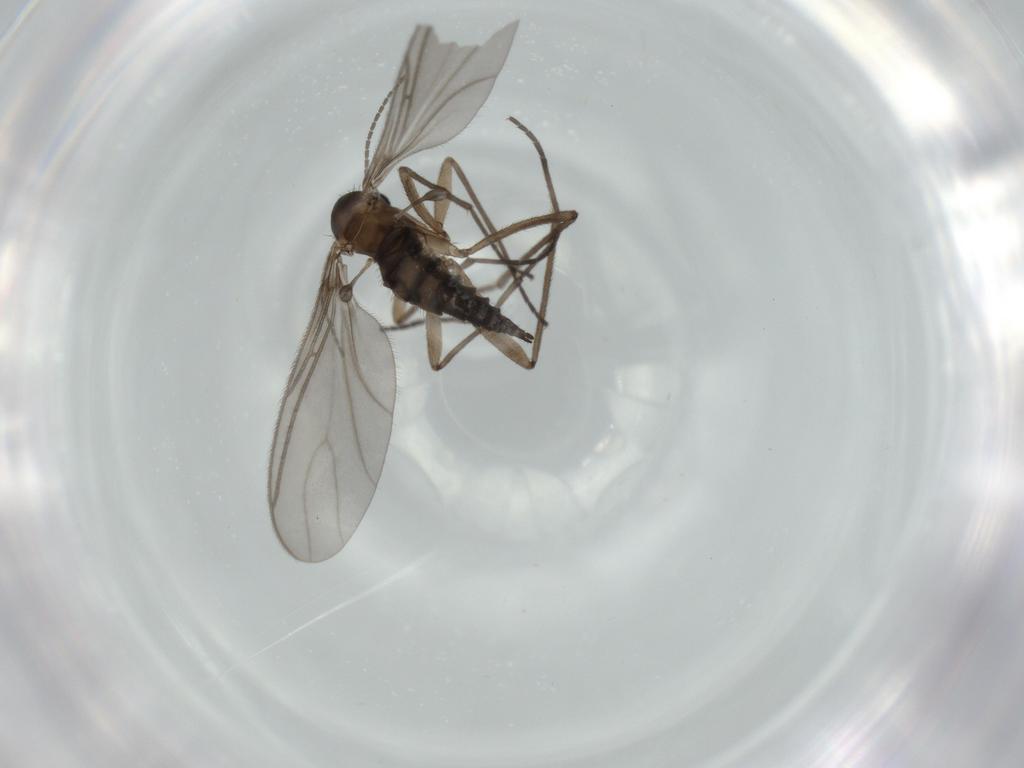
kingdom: Animalia
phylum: Arthropoda
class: Insecta
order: Diptera
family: Sciaridae
